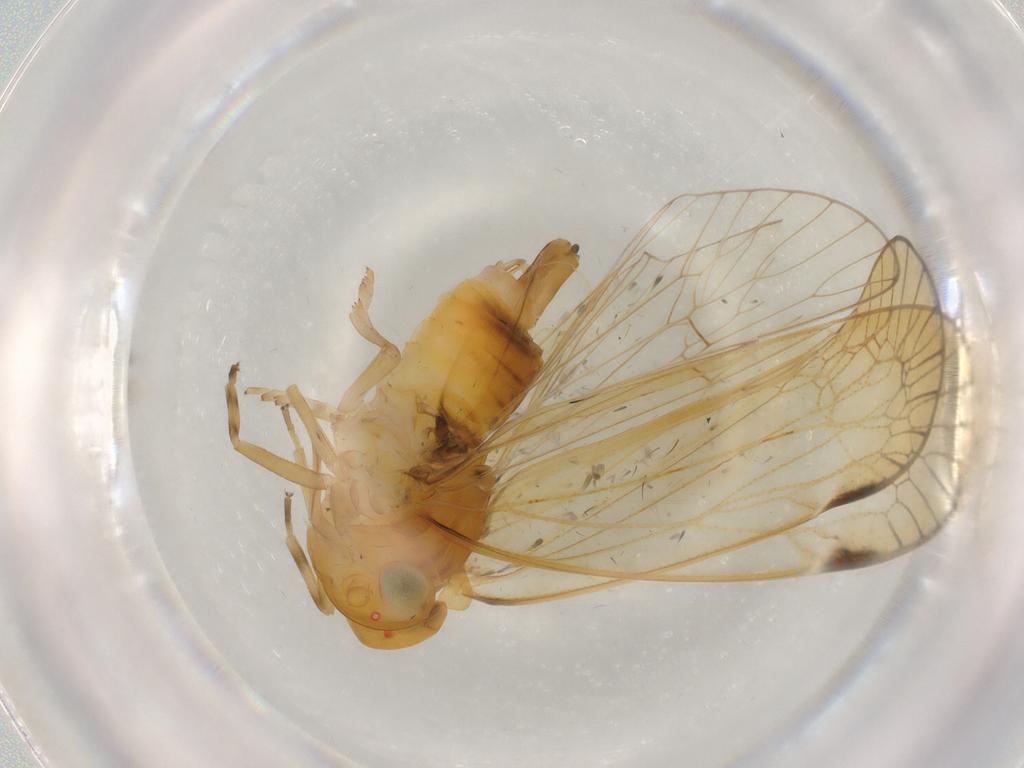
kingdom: Animalia
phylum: Arthropoda
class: Insecta
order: Hemiptera
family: Cixiidae
